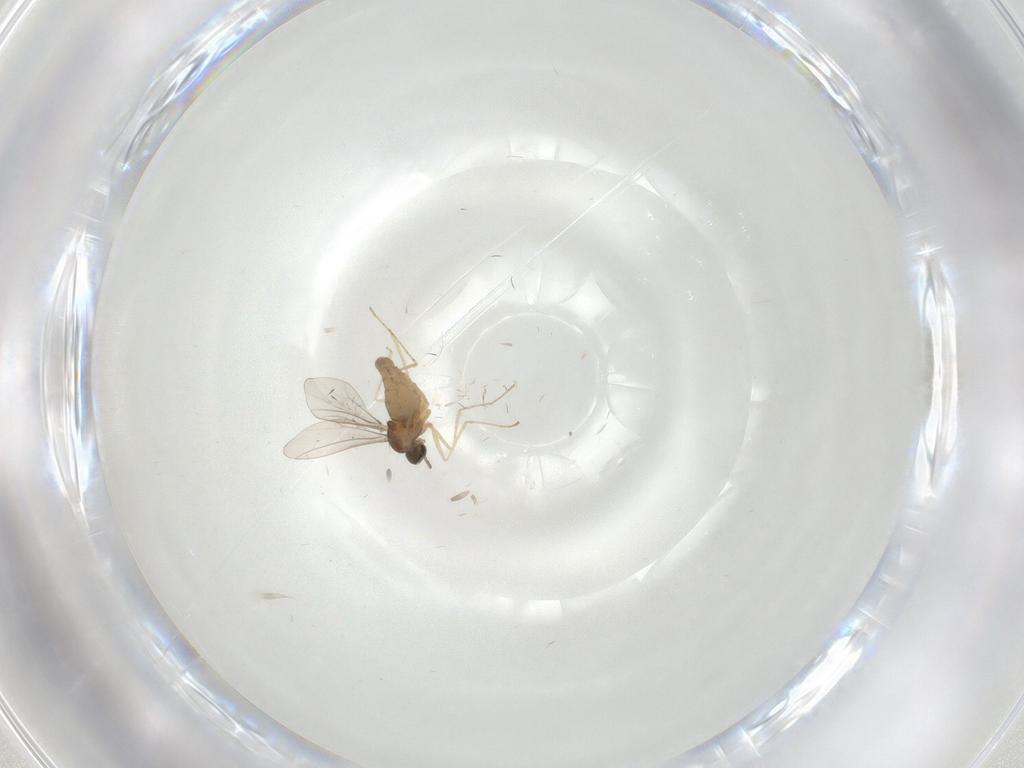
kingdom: Animalia
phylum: Arthropoda
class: Insecta
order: Diptera
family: Cecidomyiidae
